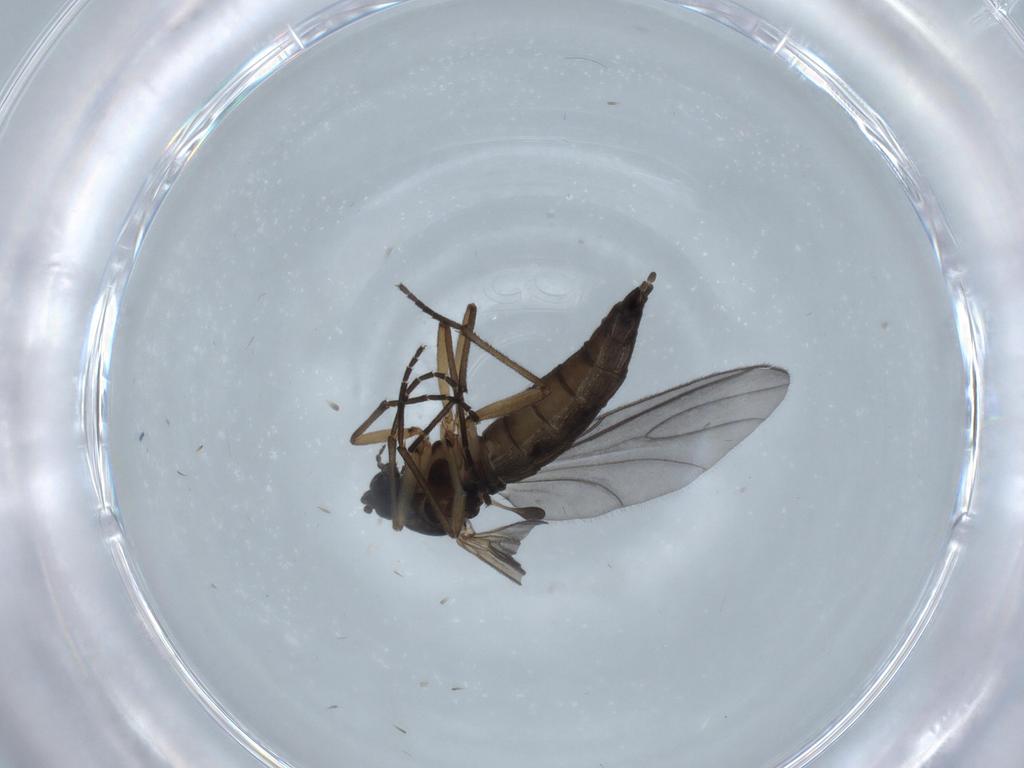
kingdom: Animalia
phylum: Arthropoda
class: Insecta
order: Diptera
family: Sciaridae
